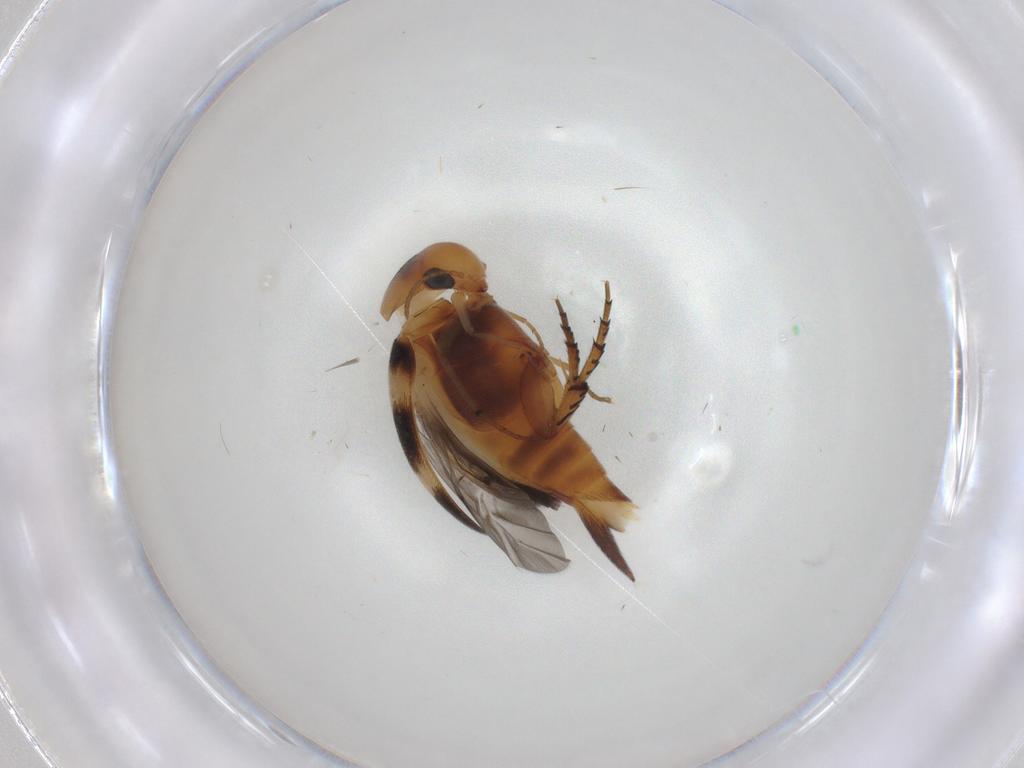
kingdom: Animalia
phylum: Arthropoda
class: Insecta
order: Coleoptera
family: Mordellidae
